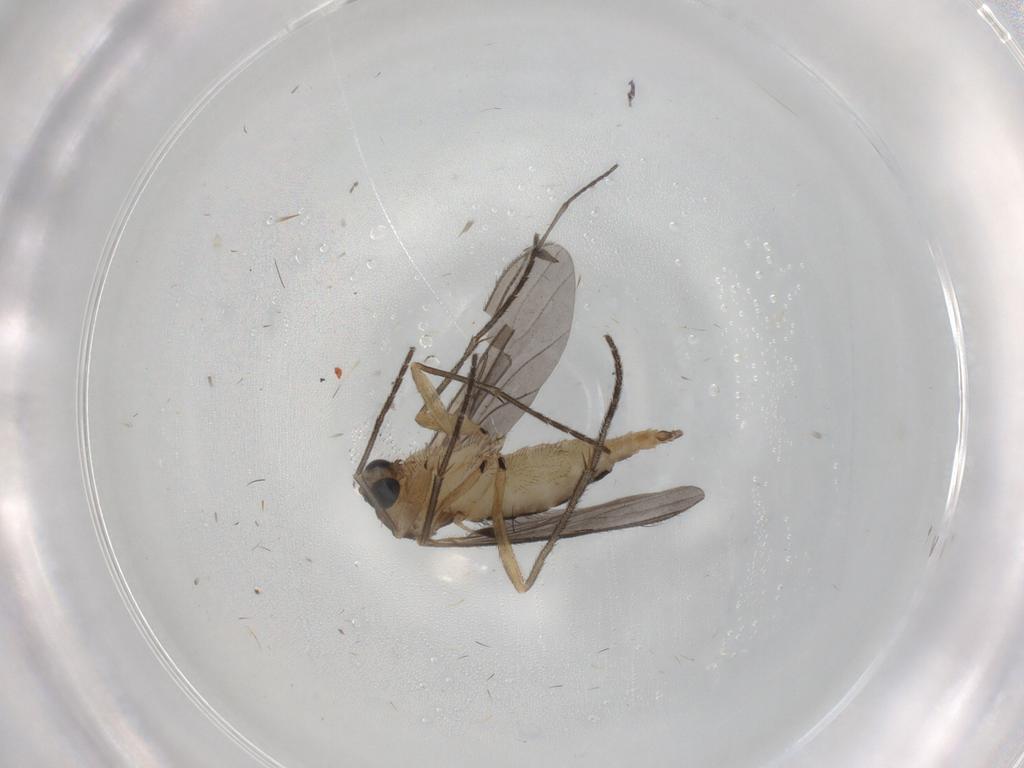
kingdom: Animalia
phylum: Arthropoda
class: Insecta
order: Diptera
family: Sciaridae
